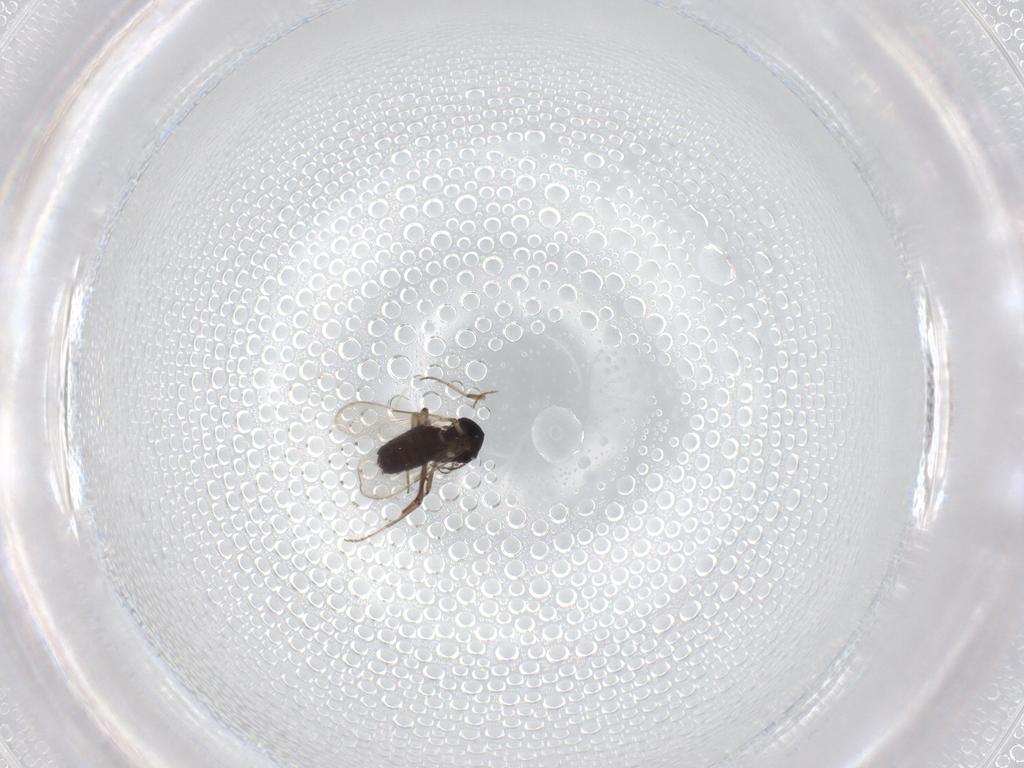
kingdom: Animalia
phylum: Arthropoda
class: Insecta
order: Diptera
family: Ceratopogonidae
